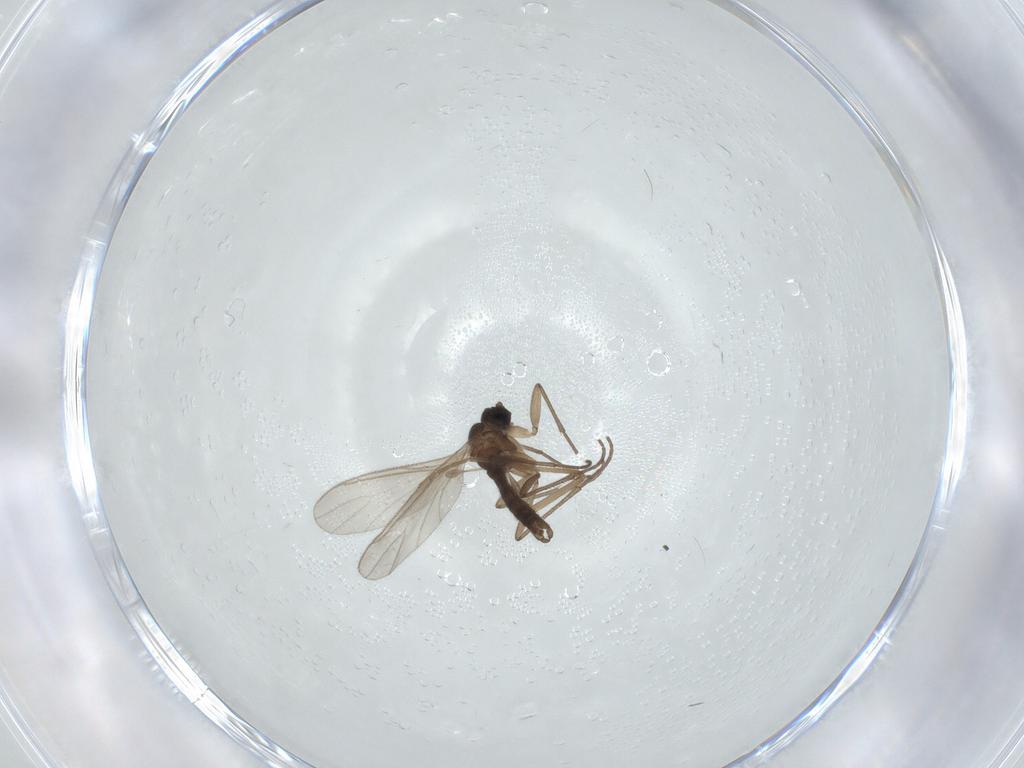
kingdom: Animalia
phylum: Arthropoda
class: Insecta
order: Diptera
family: Sciaridae
